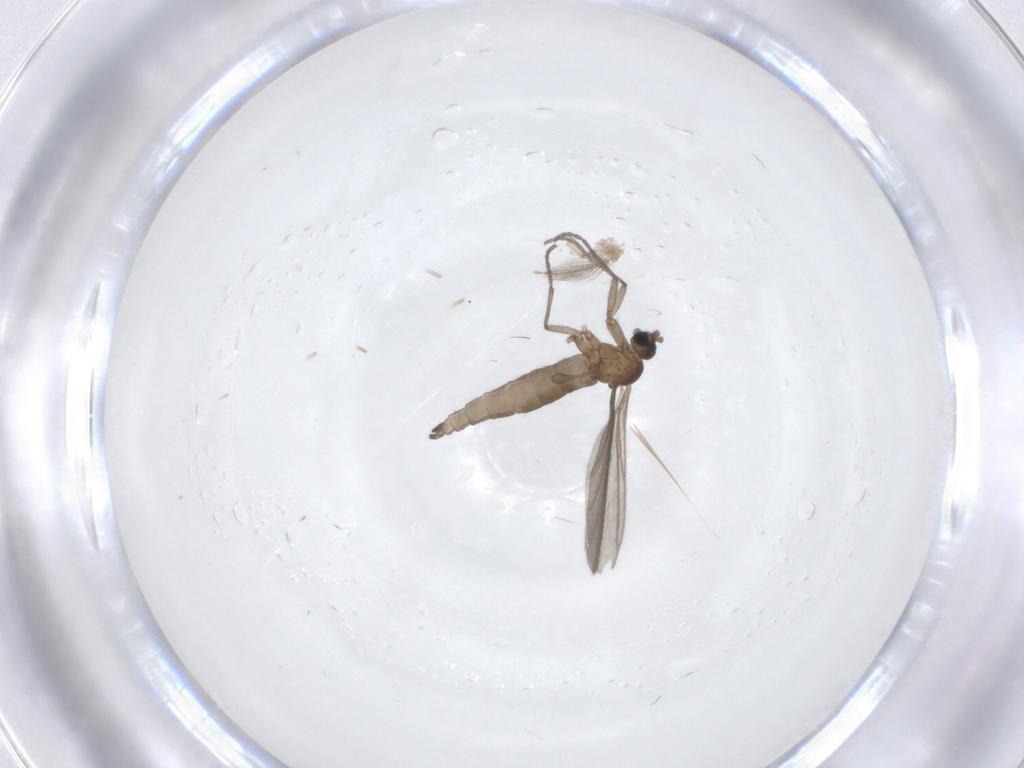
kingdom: Animalia
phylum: Arthropoda
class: Insecta
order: Diptera
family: Sciaridae
